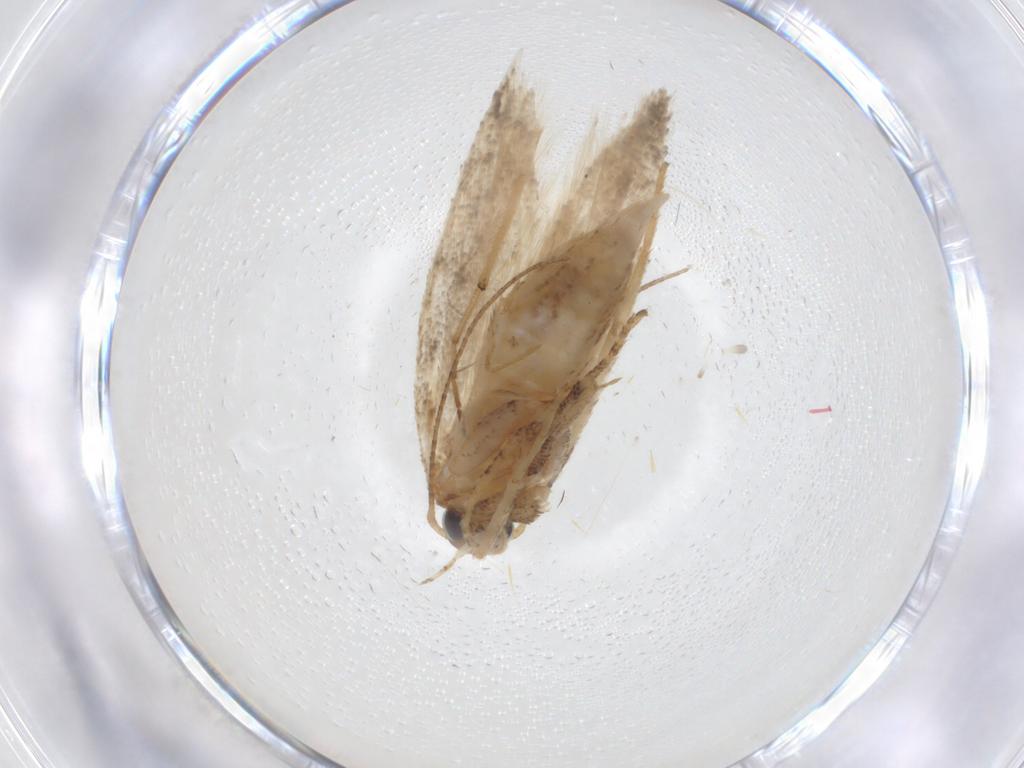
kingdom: Animalia
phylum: Arthropoda
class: Insecta
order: Lepidoptera
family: Gelechiidae
